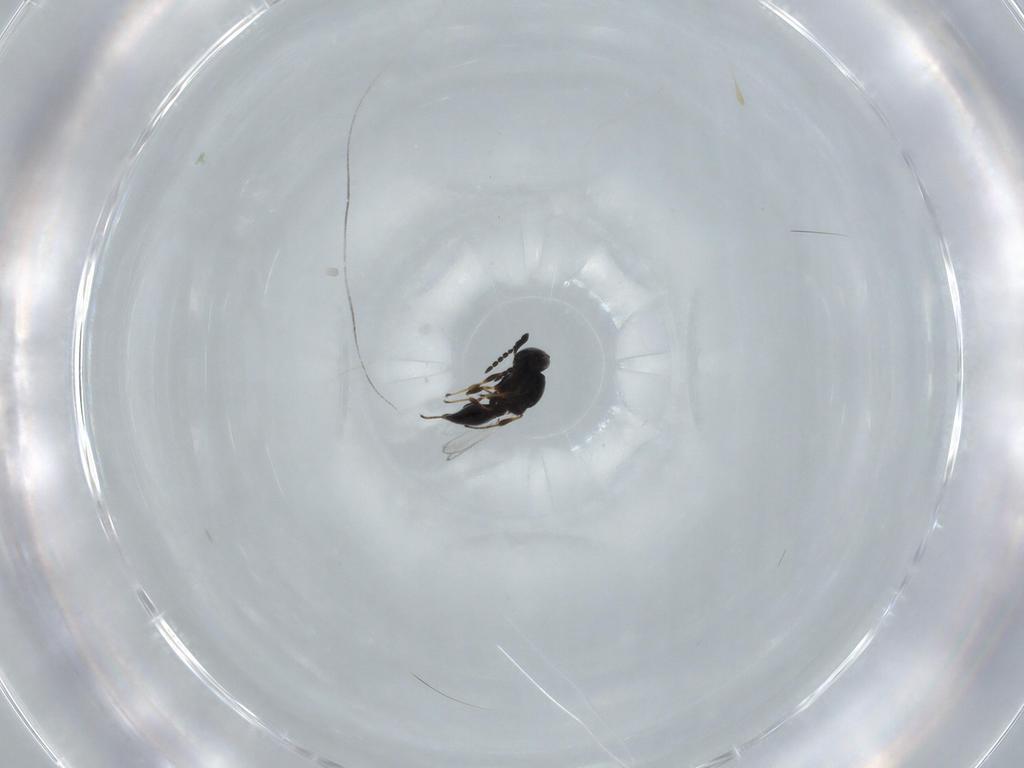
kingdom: Animalia
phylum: Arthropoda
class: Insecta
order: Hymenoptera
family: Platygastridae
